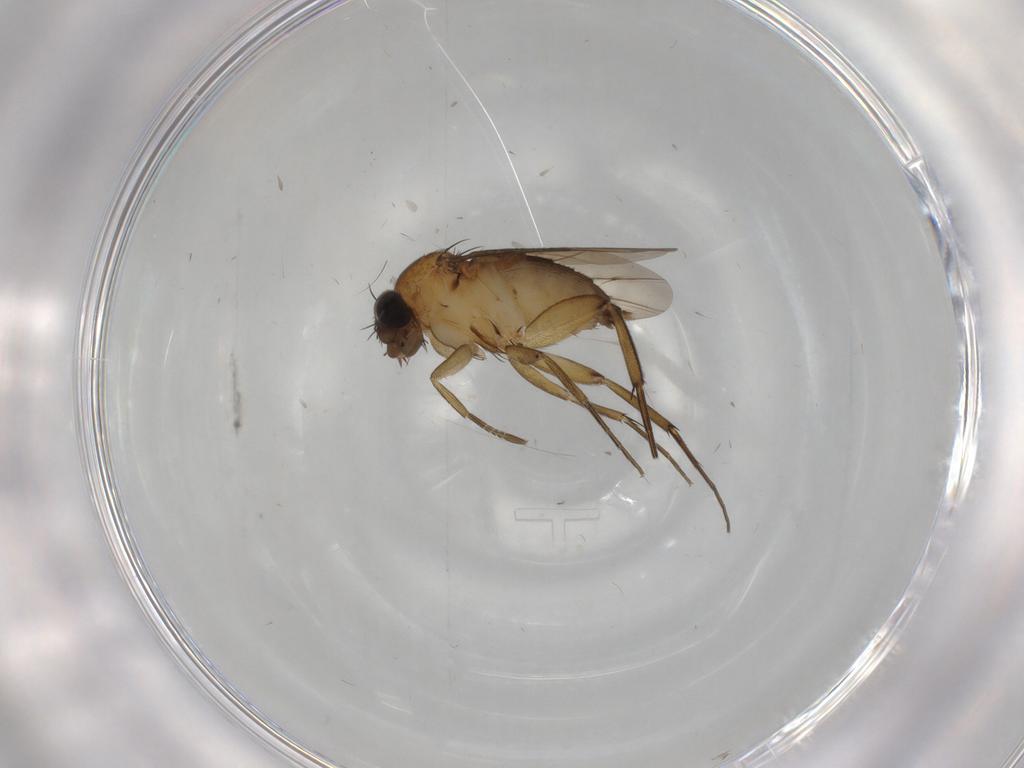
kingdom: Animalia
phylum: Arthropoda
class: Insecta
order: Diptera
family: Phoridae
